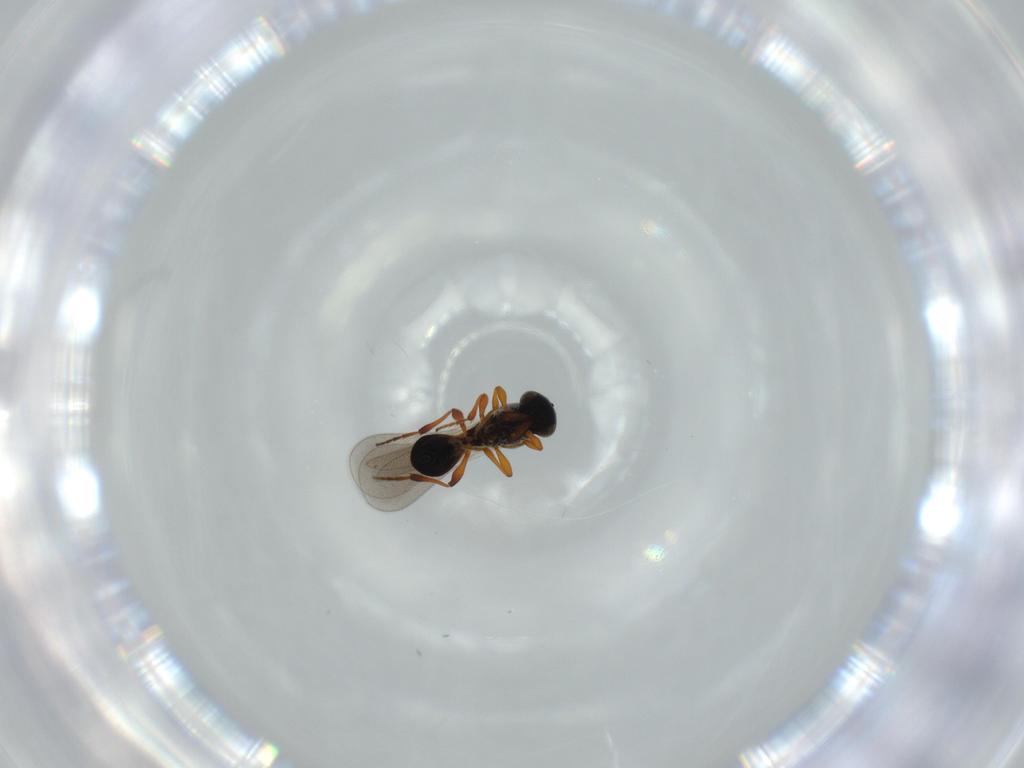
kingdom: Animalia
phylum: Arthropoda
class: Insecta
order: Hymenoptera
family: Platygastridae
